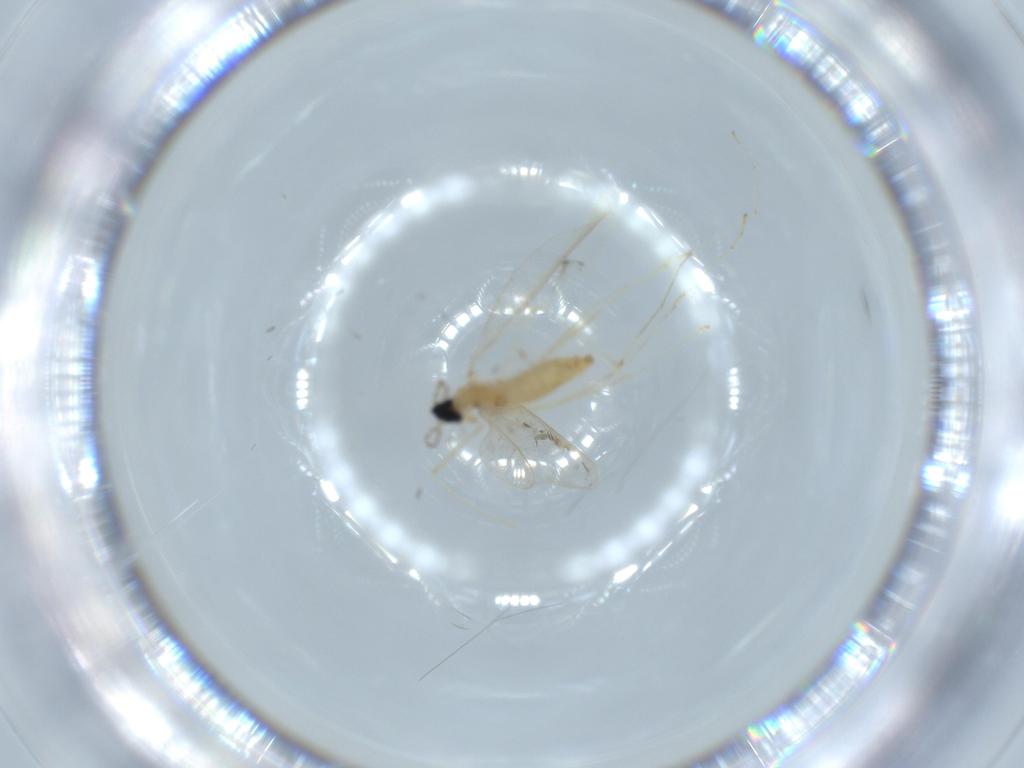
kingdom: Animalia
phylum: Arthropoda
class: Insecta
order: Diptera
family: Cecidomyiidae
